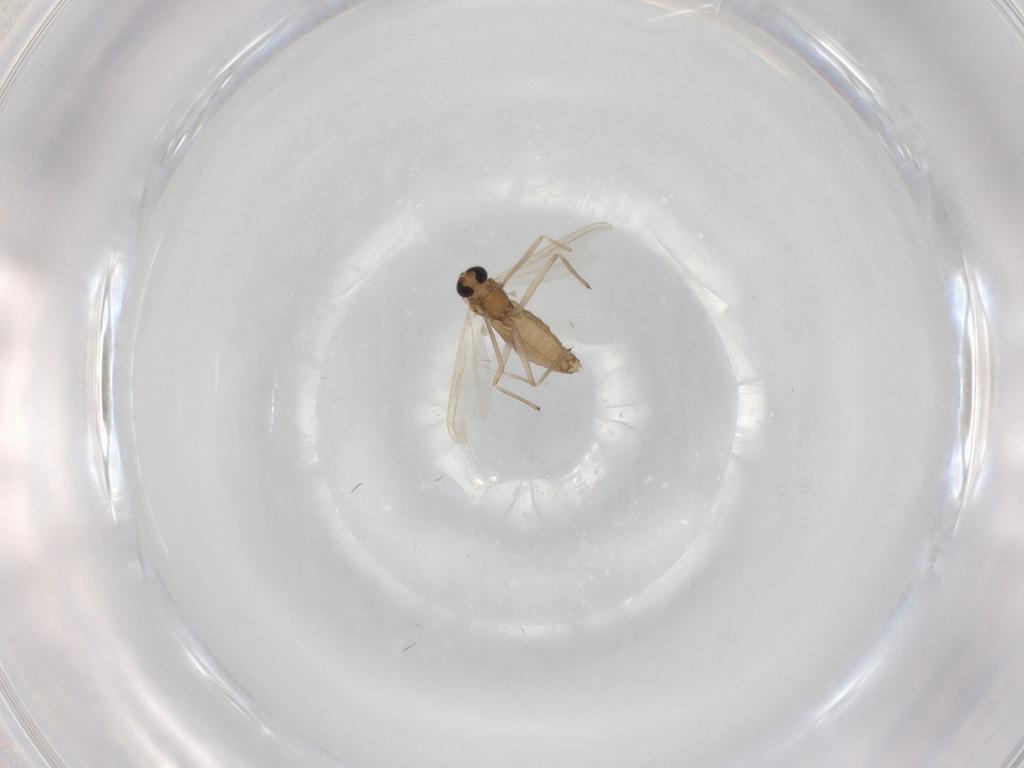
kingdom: Animalia
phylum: Arthropoda
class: Insecta
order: Diptera
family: Chironomidae
